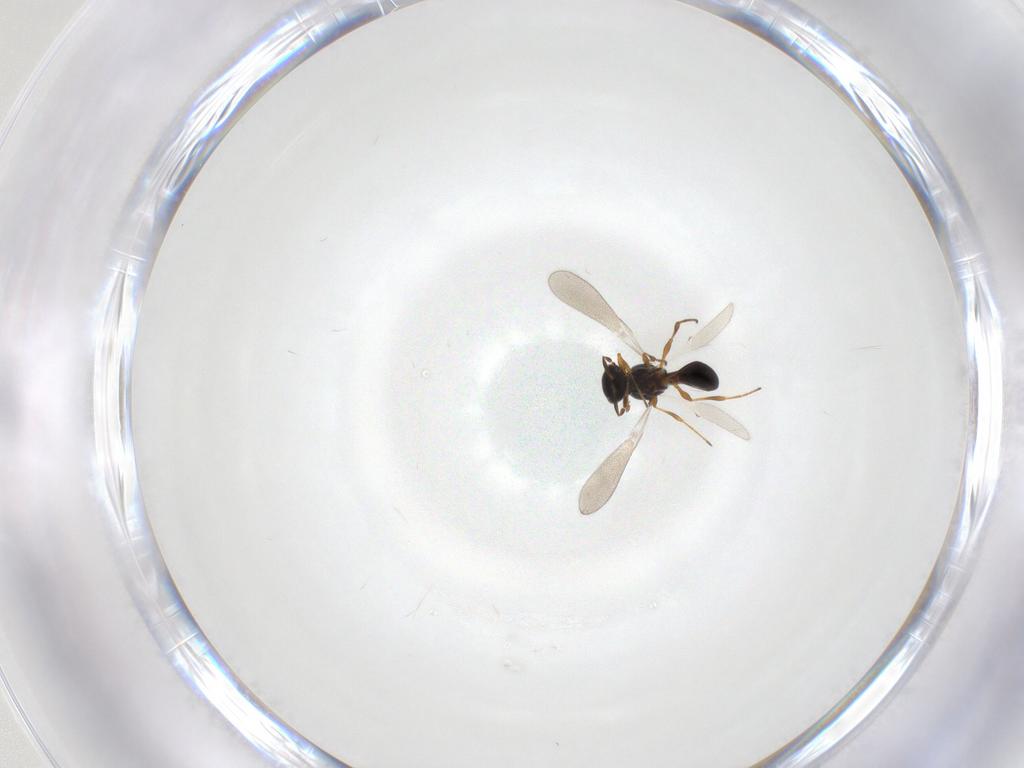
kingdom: Animalia
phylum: Arthropoda
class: Insecta
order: Hymenoptera
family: Platygastridae
